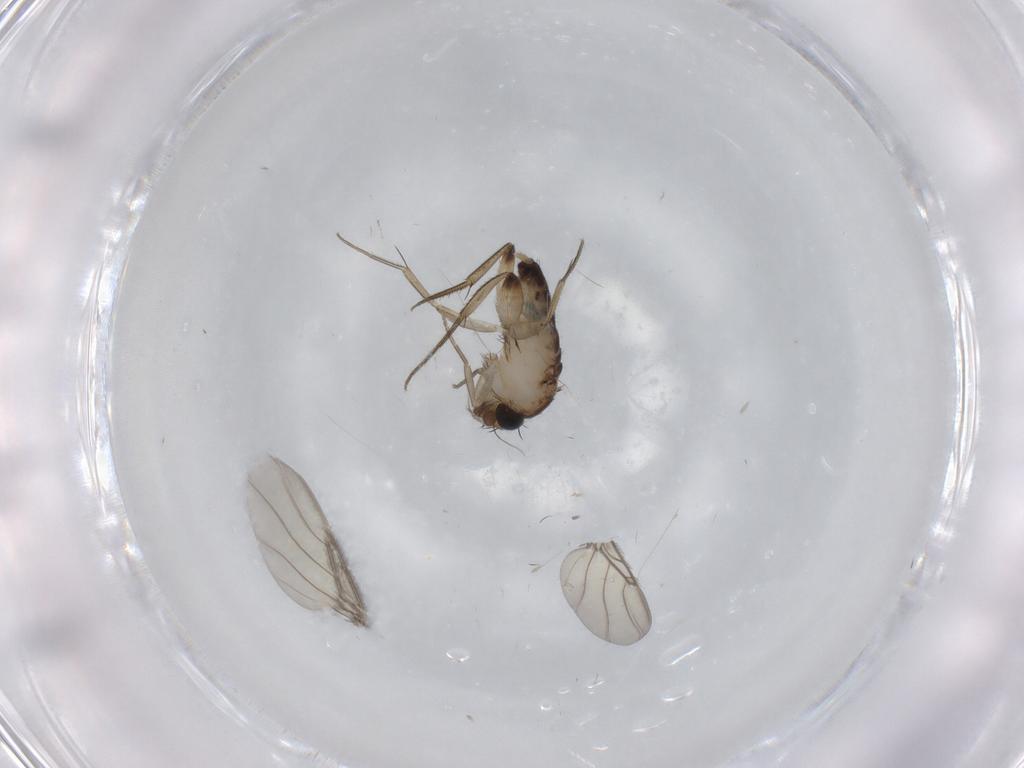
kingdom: Animalia
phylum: Arthropoda
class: Insecta
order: Diptera
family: Phoridae
